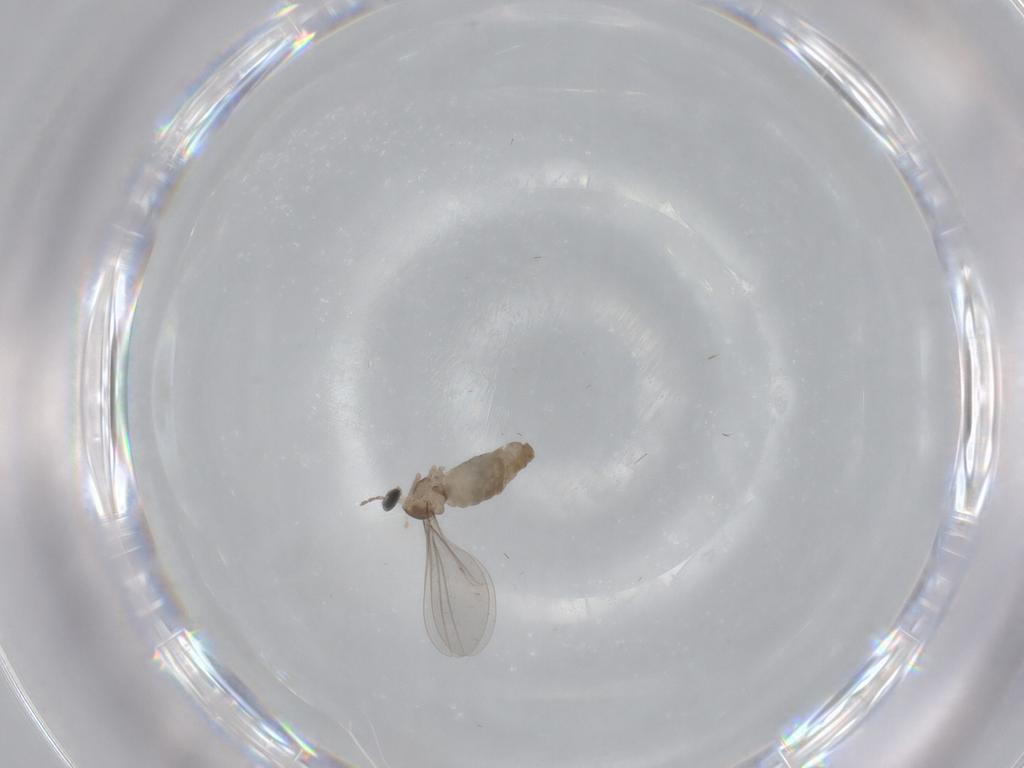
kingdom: Animalia
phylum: Arthropoda
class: Insecta
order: Diptera
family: Cecidomyiidae
